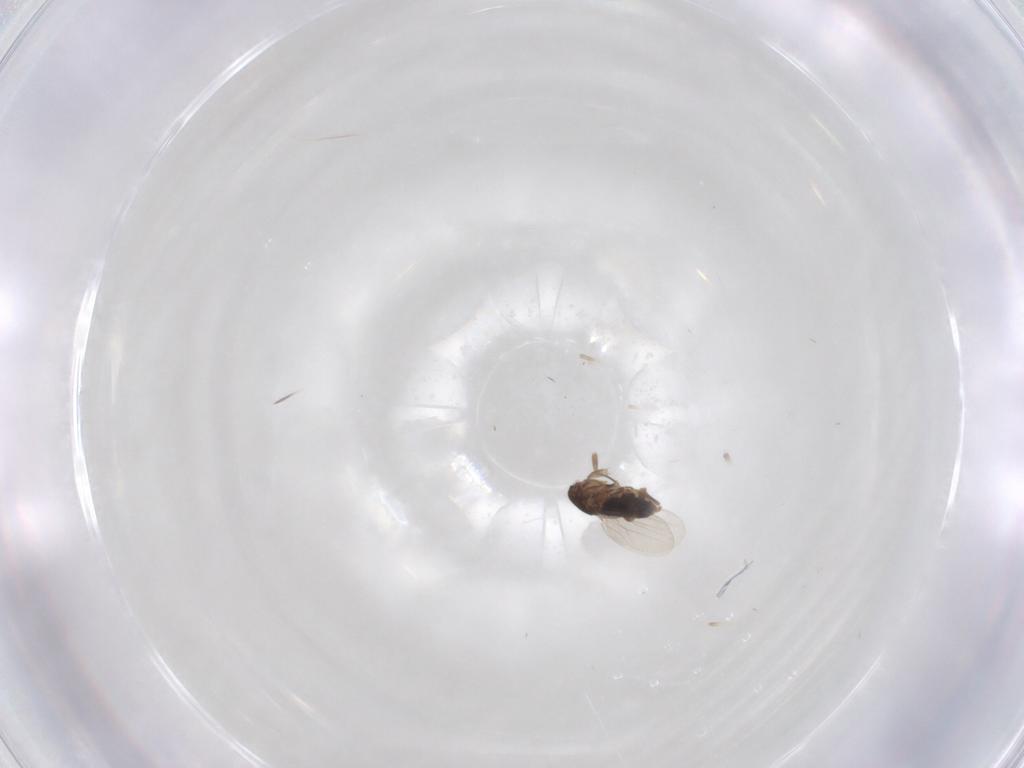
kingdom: Animalia
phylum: Arthropoda
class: Insecta
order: Diptera
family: Phoridae
